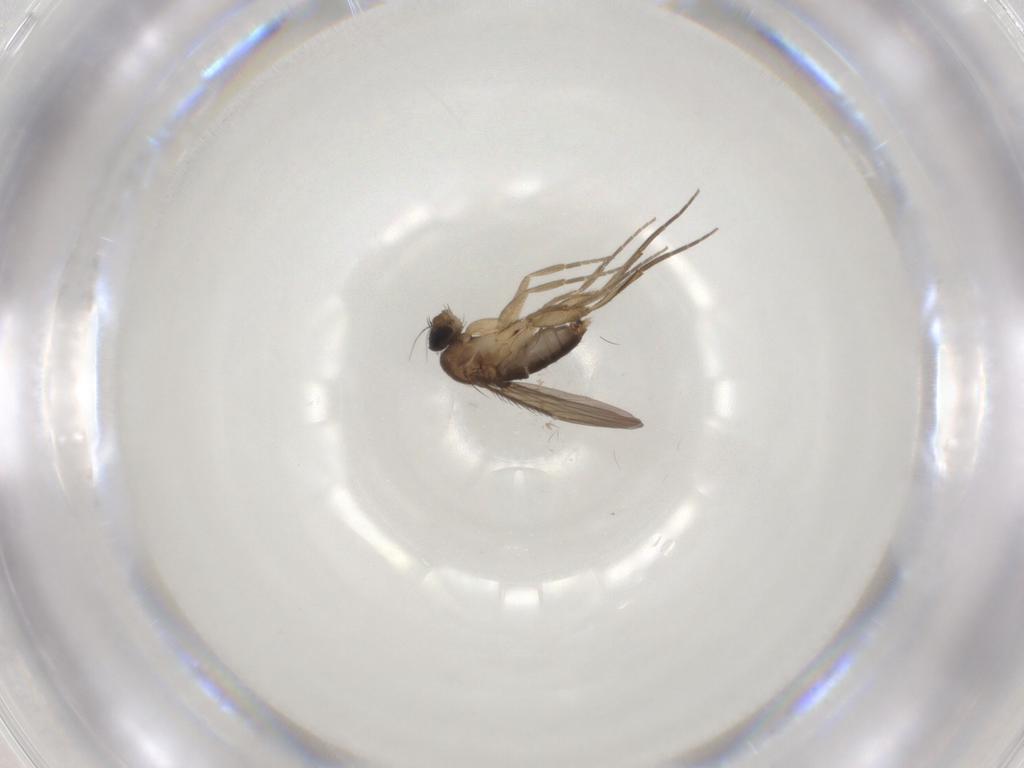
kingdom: Animalia
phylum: Arthropoda
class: Insecta
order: Diptera
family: Phoridae
